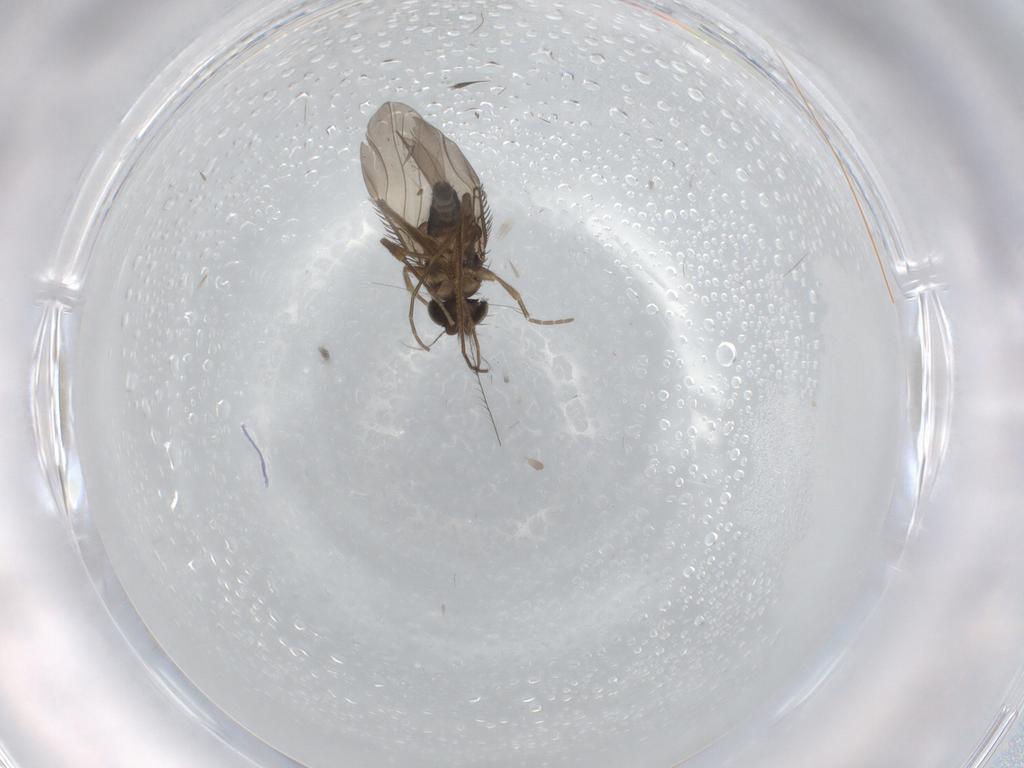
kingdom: Animalia
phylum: Arthropoda
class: Insecta
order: Diptera
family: Phoridae
